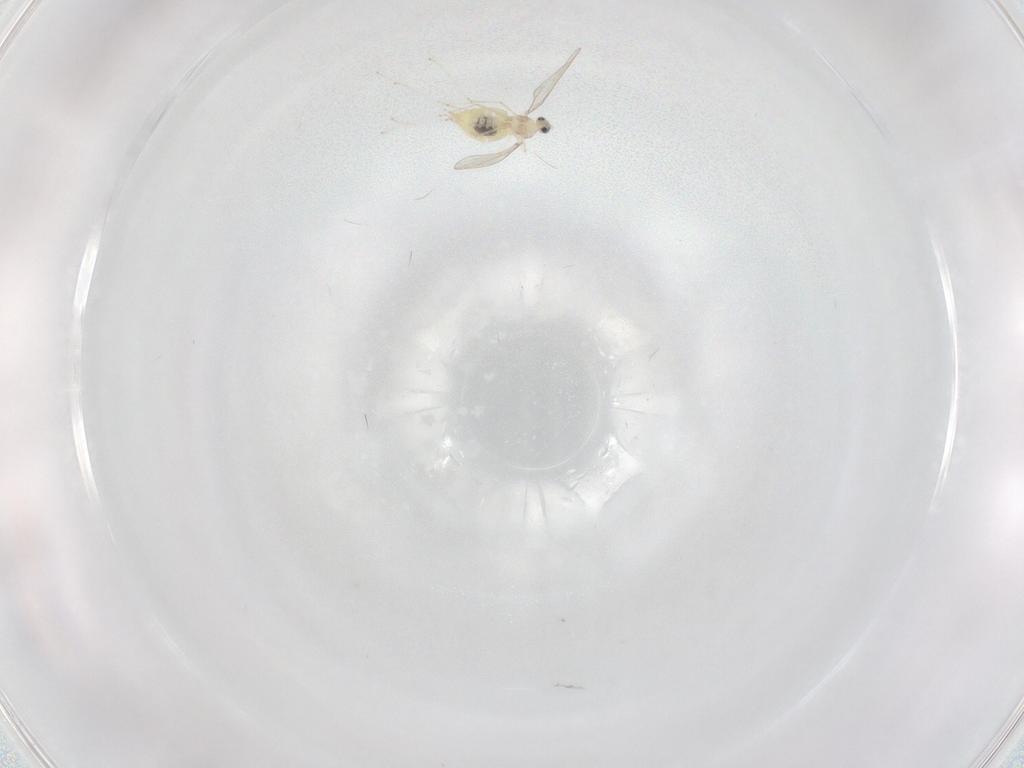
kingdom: Animalia
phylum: Arthropoda
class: Insecta
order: Diptera
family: Cecidomyiidae
